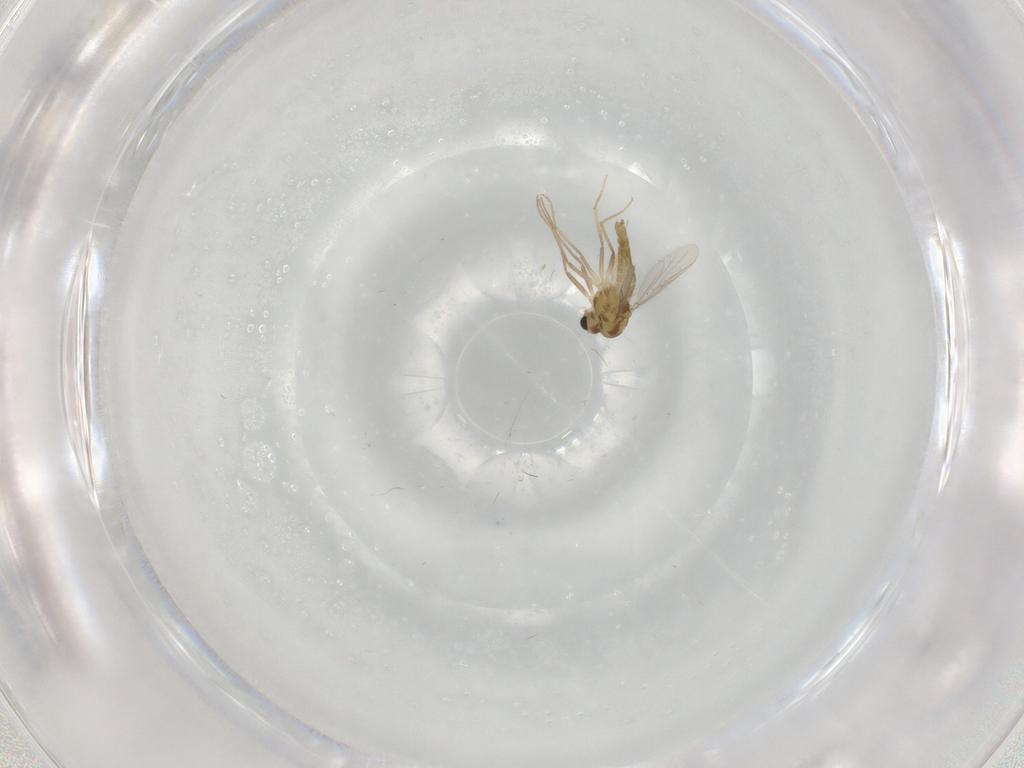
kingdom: Animalia
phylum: Arthropoda
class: Insecta
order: Diptera
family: Chironomidae
